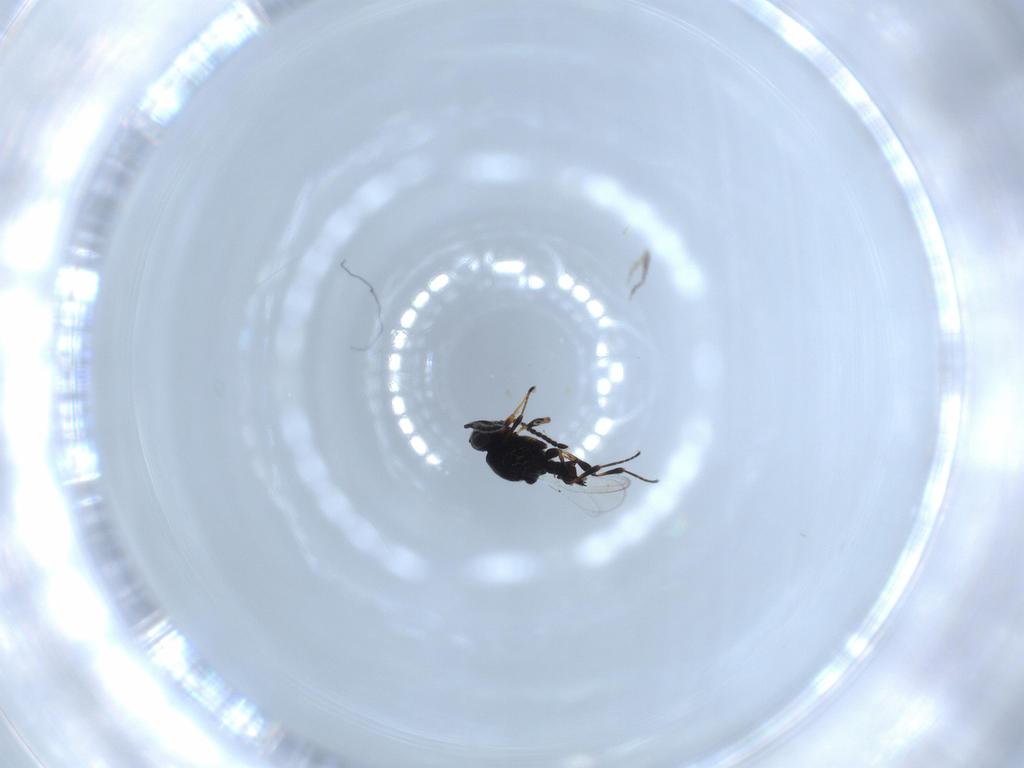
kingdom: Animalia
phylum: Arthropoda
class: Insecta
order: Hymenoptera
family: Platygastridae
